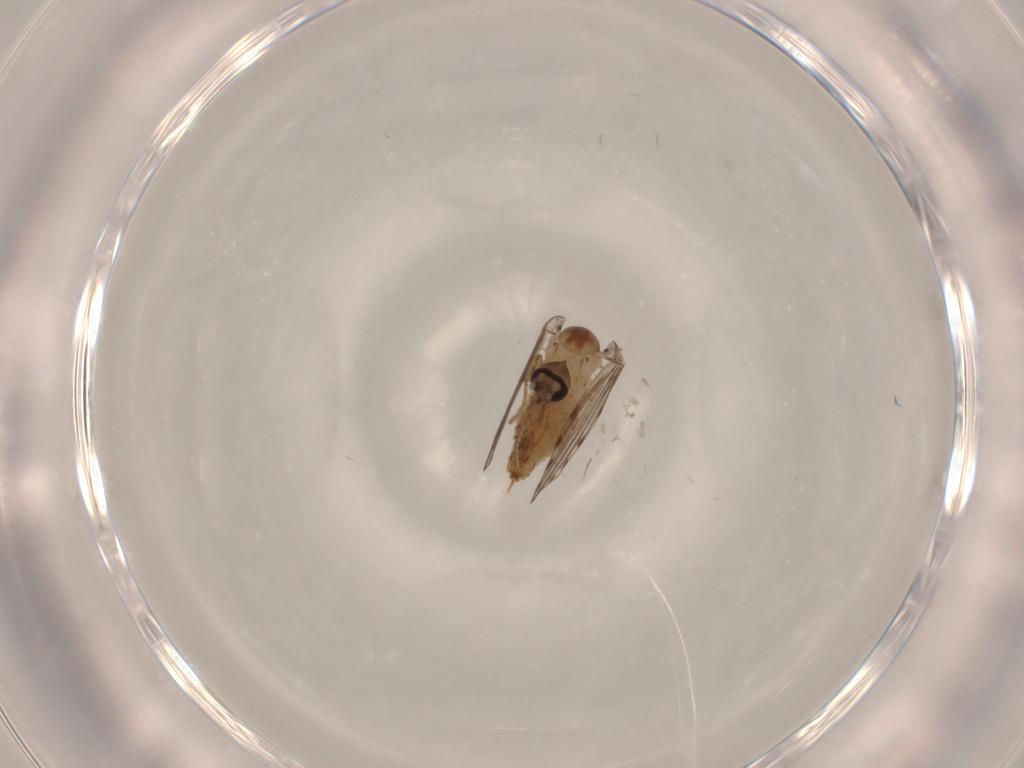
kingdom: Animalia
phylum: Arthropoda
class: Insecta
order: Diptera
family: Psychodidae
